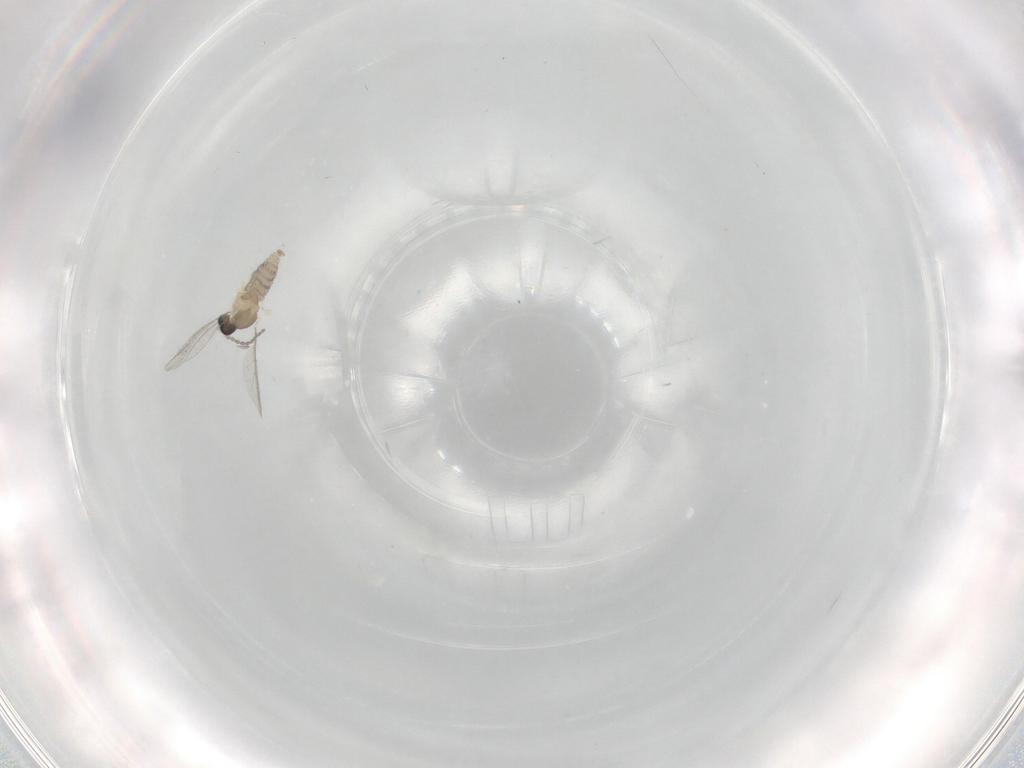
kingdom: Animalia
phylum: Arthropoda
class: Insecta
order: Diptera
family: Cecidomyiidae
